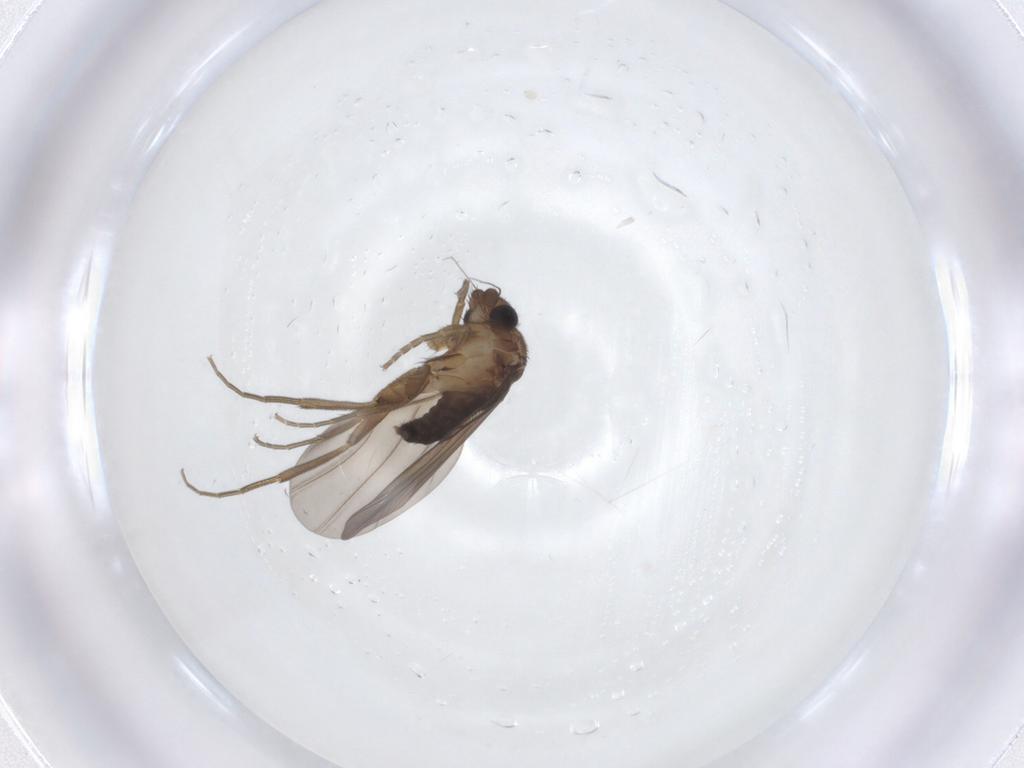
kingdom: Animalia
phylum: Arthropoda
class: Insecta
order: Diptera
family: Phoridae
